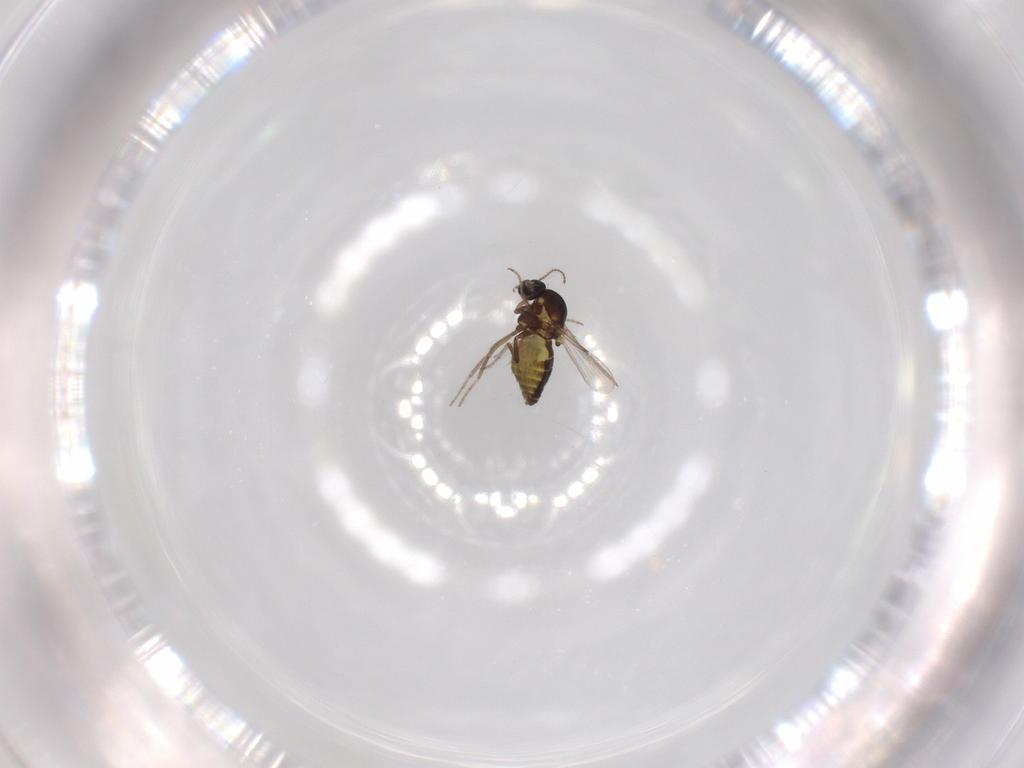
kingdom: Animalia
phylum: Arthropoda
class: Insecta
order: Diptera
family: Ceratopogonidae
